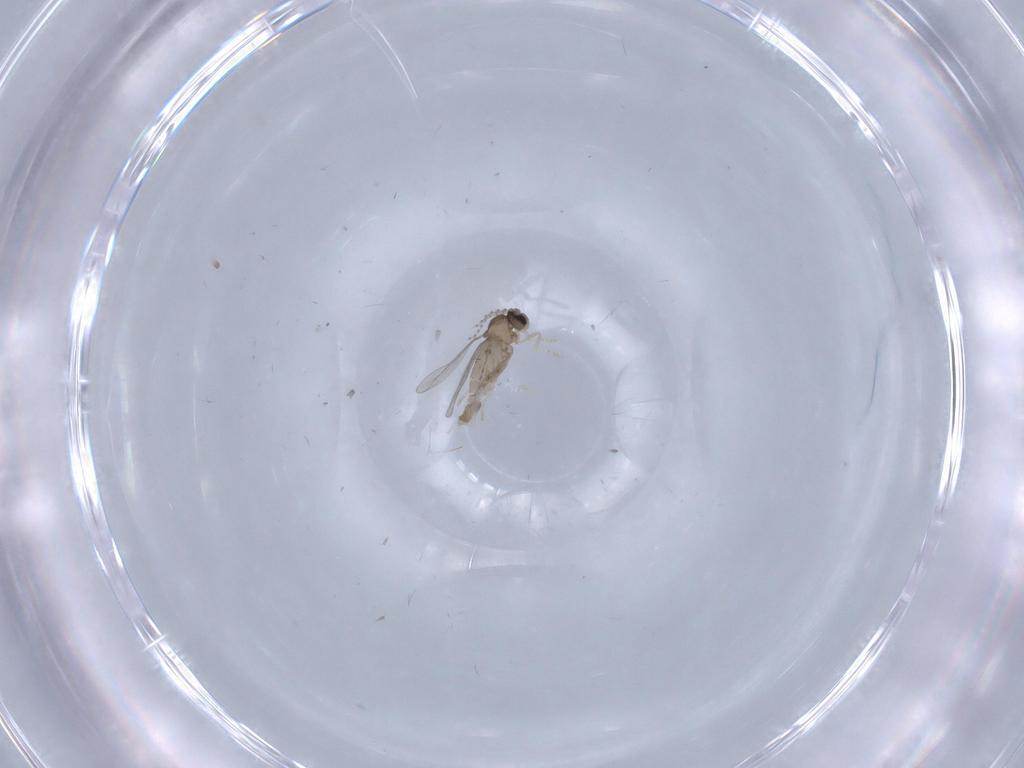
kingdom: Animalia
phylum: Arthropoda
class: Insecta
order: Diptera
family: Cecidomyiidae
